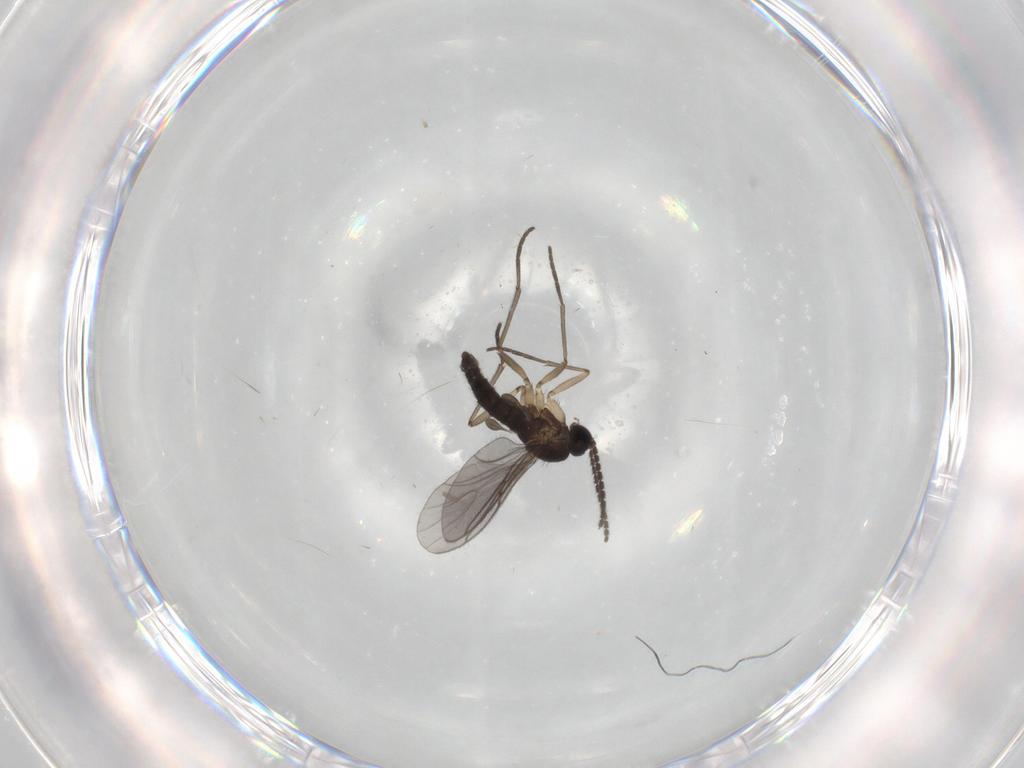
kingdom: Animalia
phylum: Arthropoda
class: Insecta
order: Diptera
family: Sciaridae
